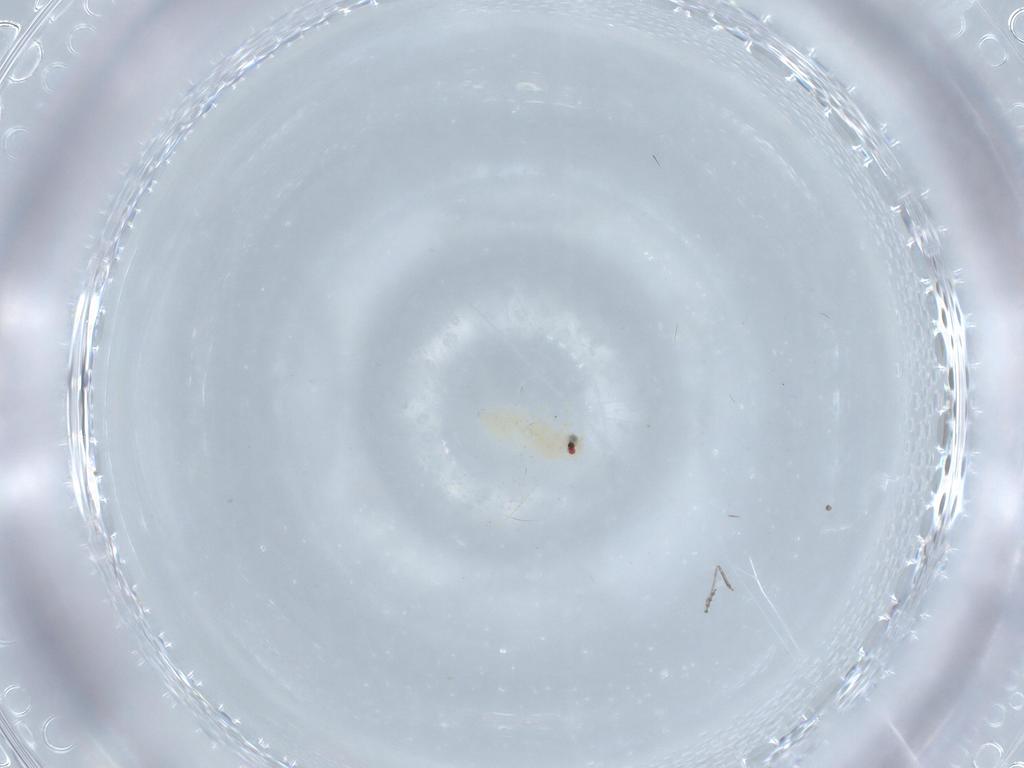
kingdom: Animalia
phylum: Arthropoda
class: Insecta
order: Hemiptera
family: Aleyrodidae
